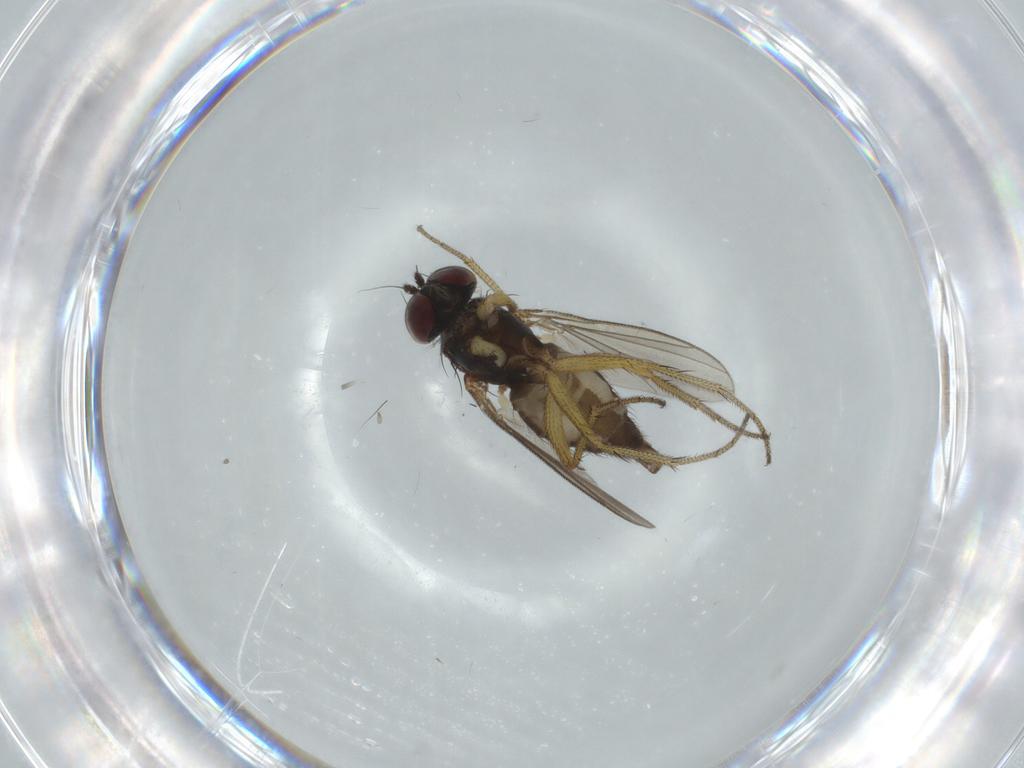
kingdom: Animalia
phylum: Arthropoda
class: Insecta
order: Diptera
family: Dolichopodidae
